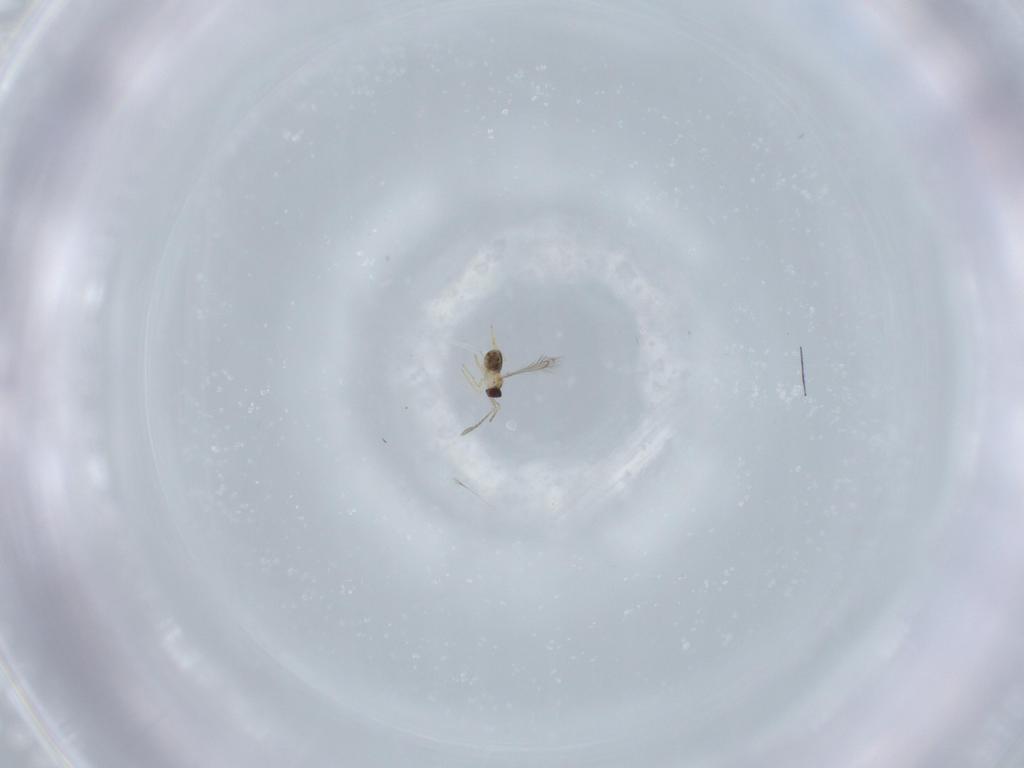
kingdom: Animalia
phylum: Arthropoda
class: Insecta
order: Hymenoptera
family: Mymaridae
